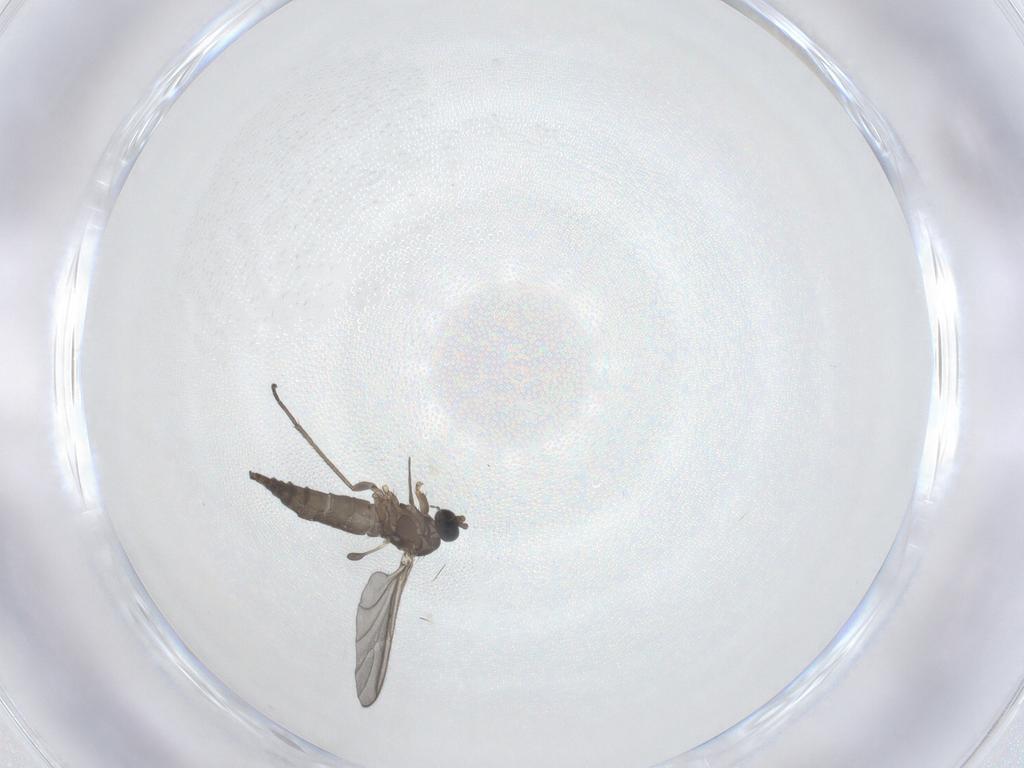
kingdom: Animalia
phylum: Arthropoda
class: Insecta
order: Diptera
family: Sciaridae
